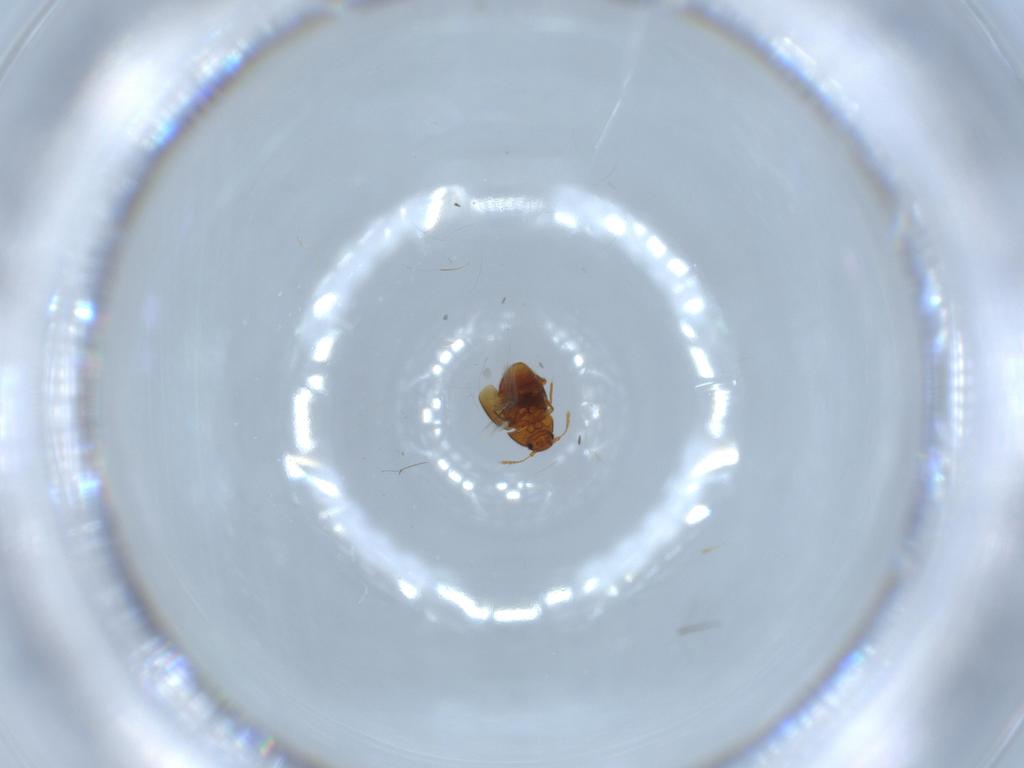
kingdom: Animalia
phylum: Arthropoda
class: Insecta
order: Coleoptera
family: Ptiliidae
